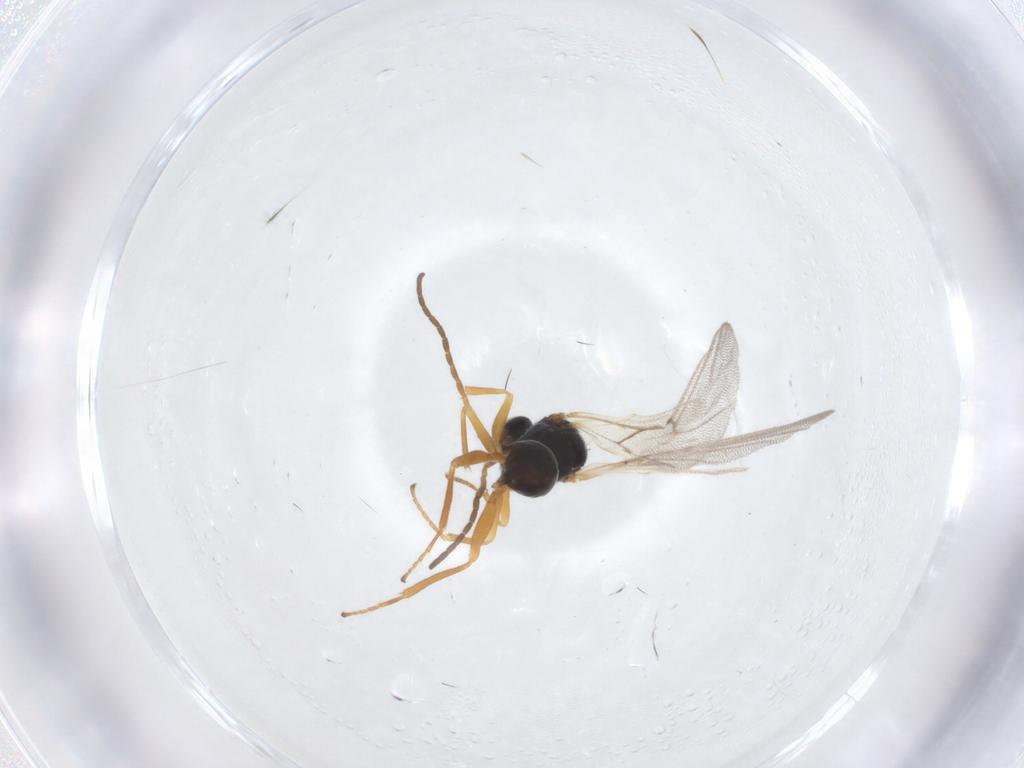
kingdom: Animalia
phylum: Arthropoda
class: Insecta
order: Hymenoptera
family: Cynipidae
